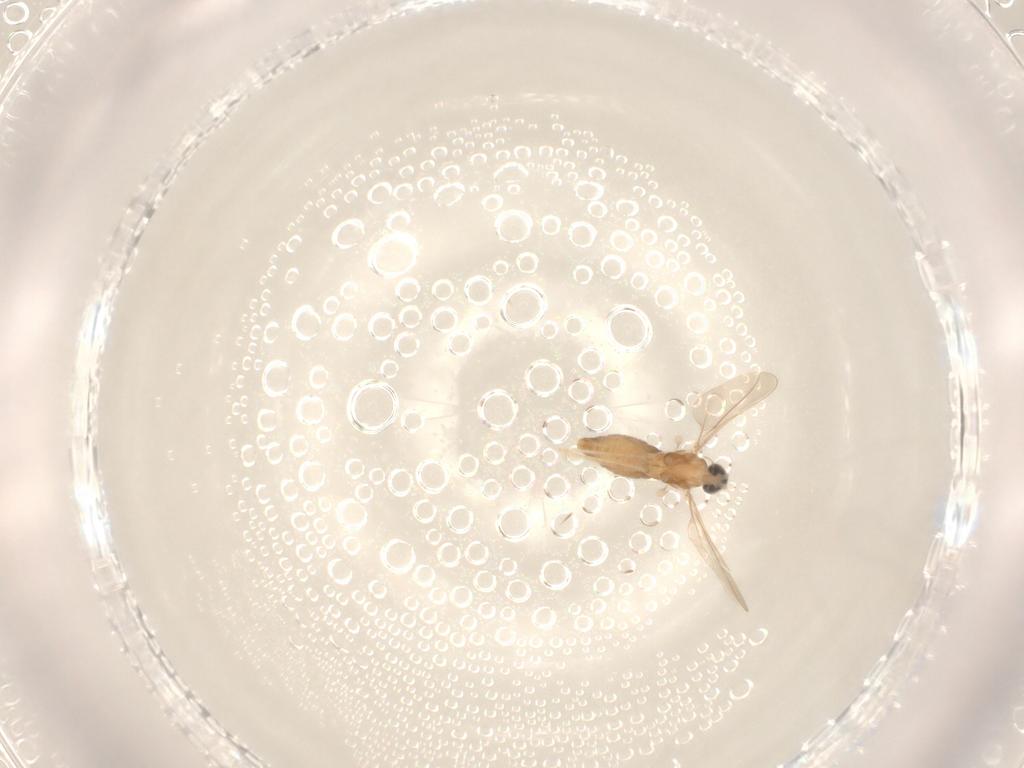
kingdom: Animalia
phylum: Arthropoda
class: Insecta
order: Diptera
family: Cecidomyiidae
